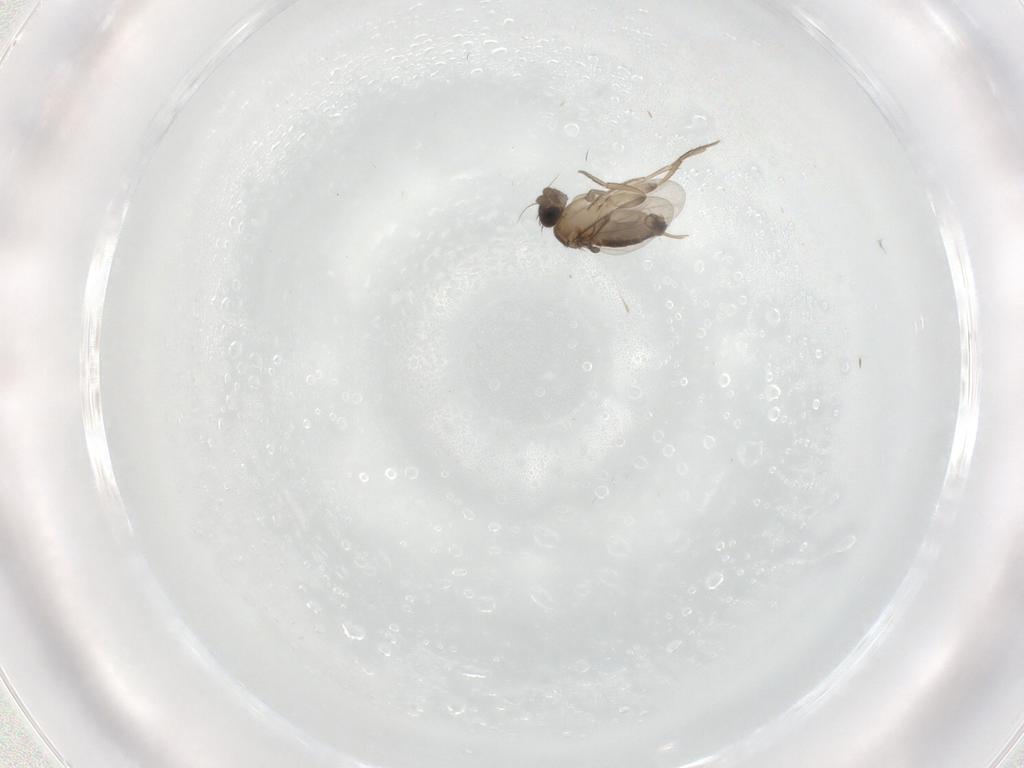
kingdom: Animalia
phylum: Arthropoda
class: Insecta
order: Diptera
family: Phoridae
